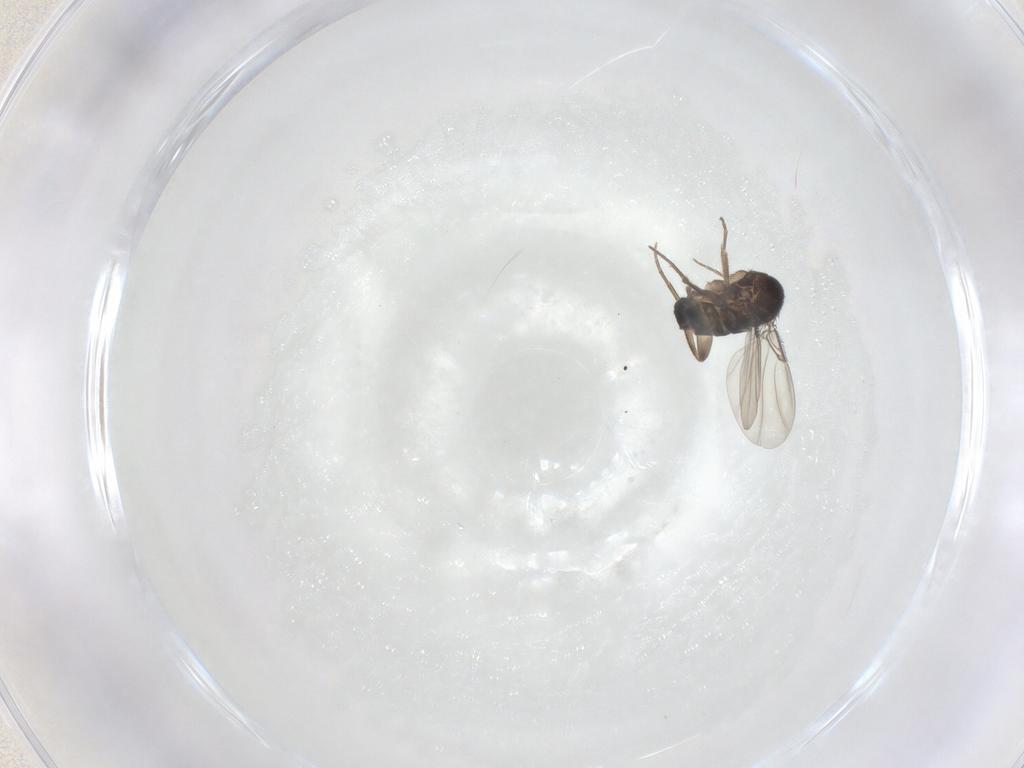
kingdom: Animalia
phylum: Arthropoda
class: Insecta
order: Diptera
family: Phoridae
